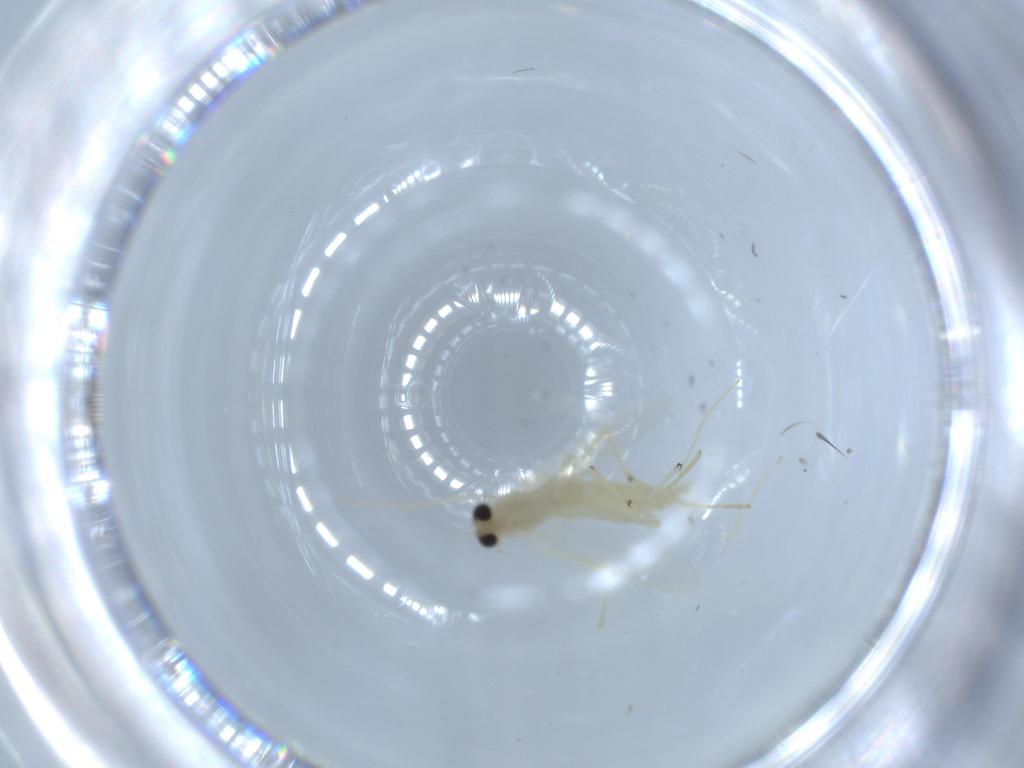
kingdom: Animalia
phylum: Arthropoda
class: Insecta
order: Diptera
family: Chironomidae
